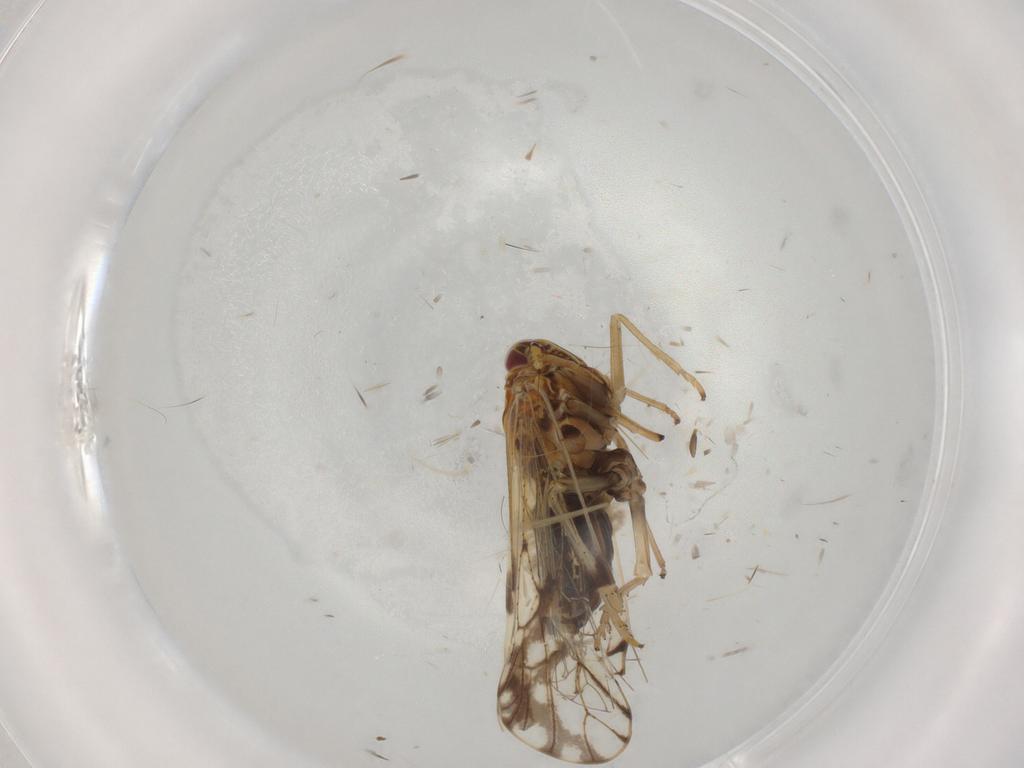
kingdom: Animalia
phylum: Arthropoda
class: Insecta
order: Hemiptera
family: Delphacidae
